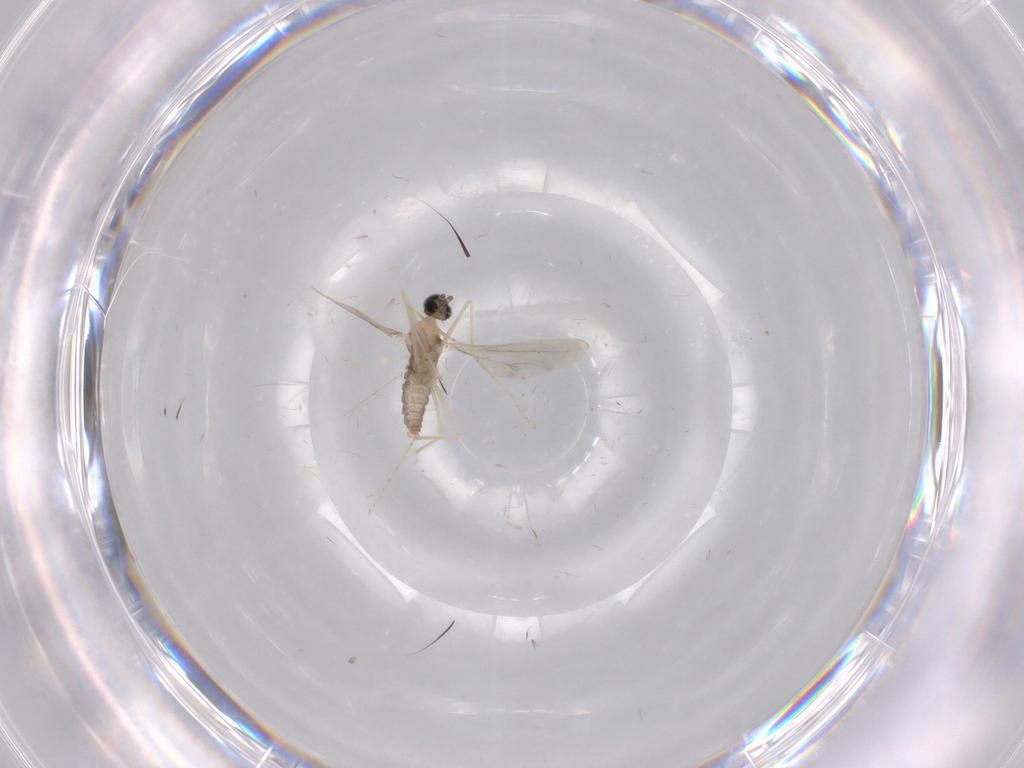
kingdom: Animalia
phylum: Arthropoda
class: Insecta
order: Diptera
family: Cecidomyiidae
